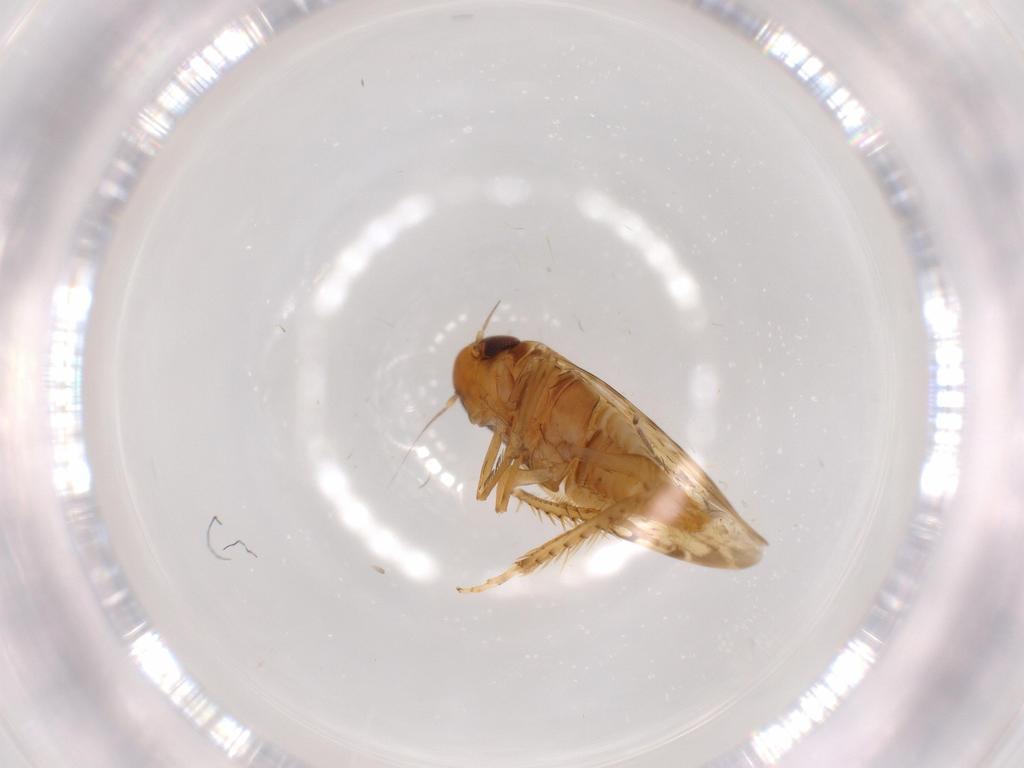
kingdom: Animalia
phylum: Arthropoda
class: Insecta
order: Hemiptera
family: Cicadellidae
